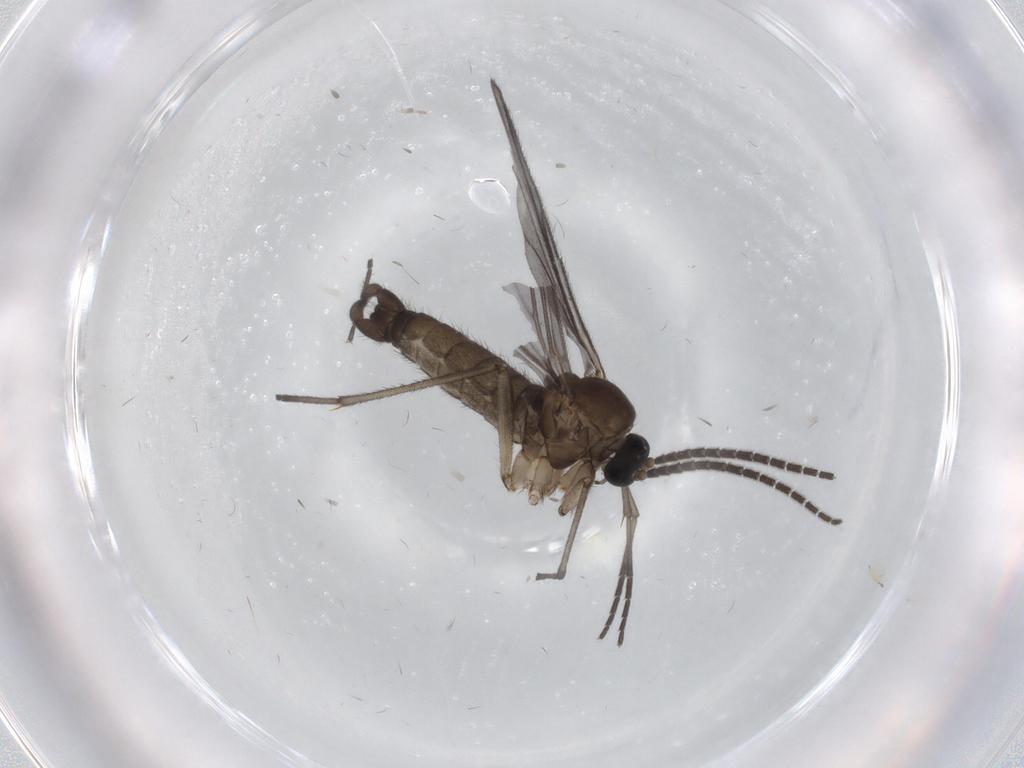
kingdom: Animalia
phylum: Arthropoda
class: Insecta
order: Diptera
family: Sciaridae
